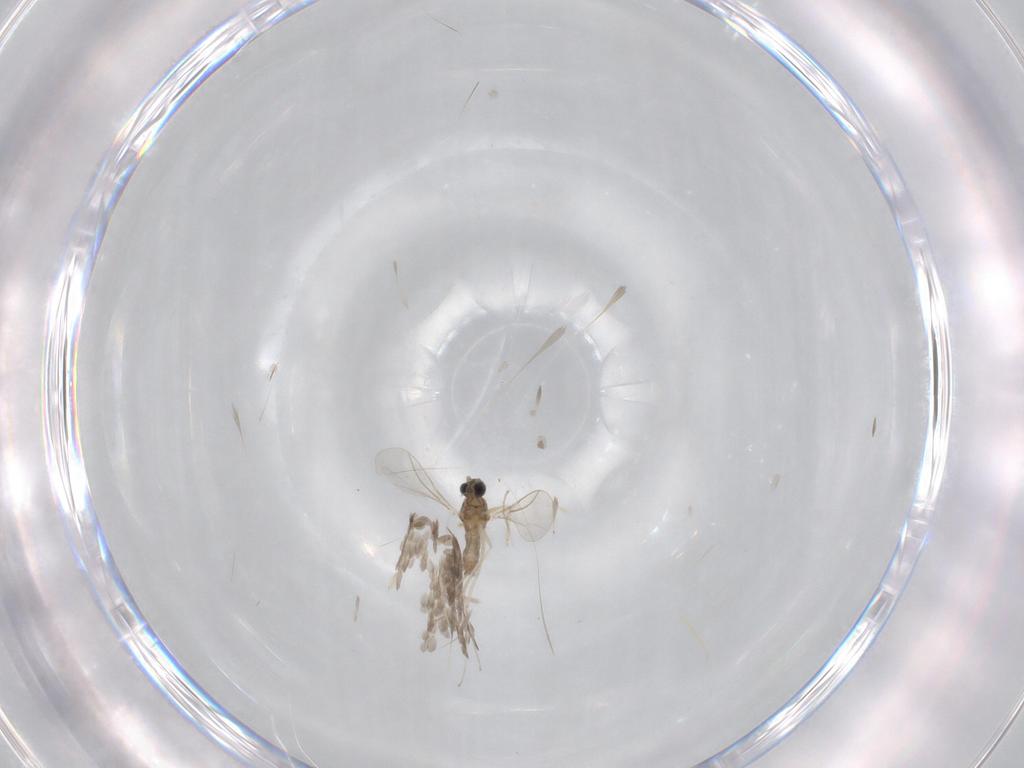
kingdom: Animalia
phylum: Arthropoda
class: Insecta
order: Diptera
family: Cecidomyiidae
